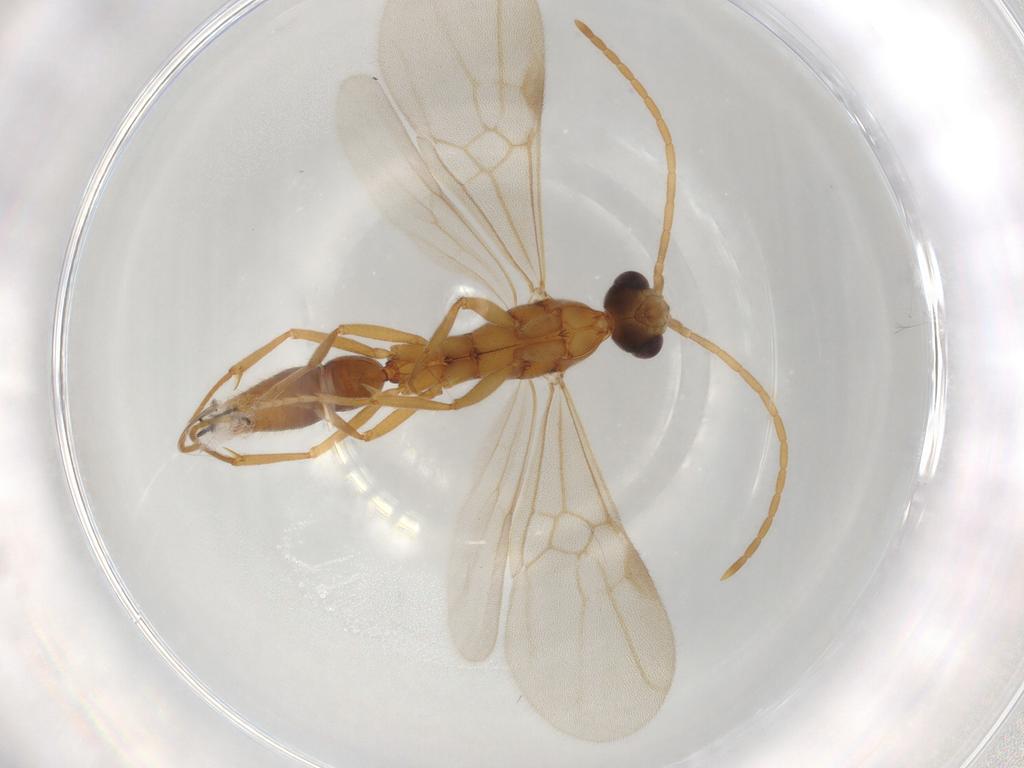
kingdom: Animalia
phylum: Arthropoda
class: Insecta
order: Hymenoptera
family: Formicidae
